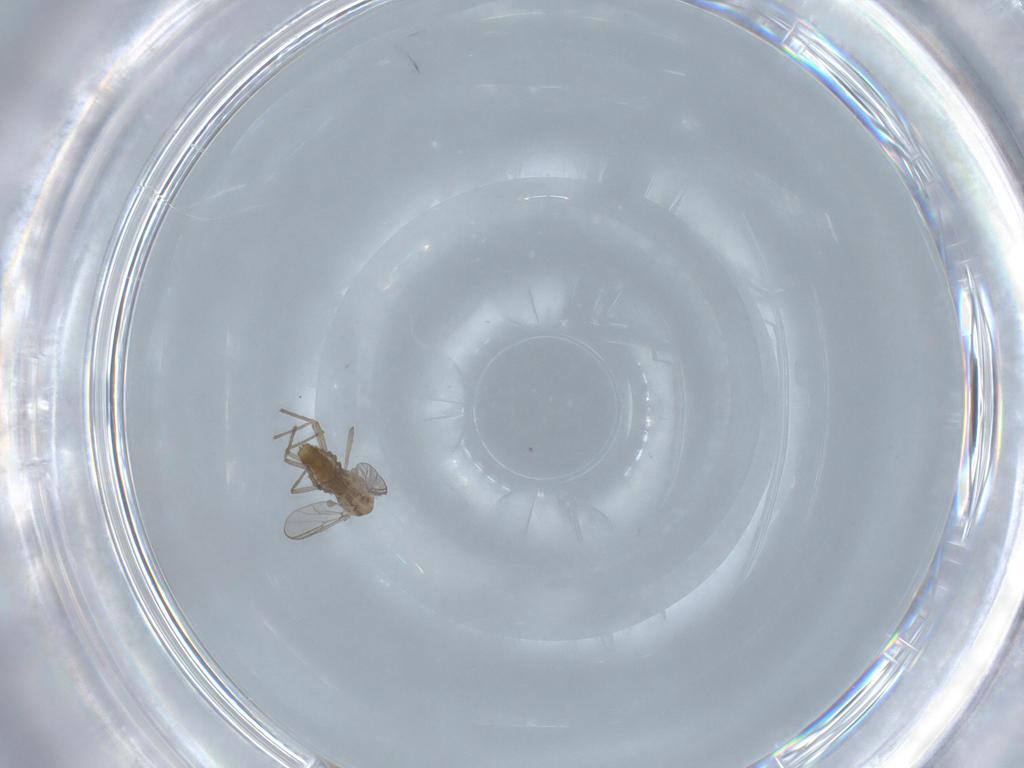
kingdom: Animalia
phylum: Arthropoda
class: Insecta
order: Diptera
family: Chironomidae
